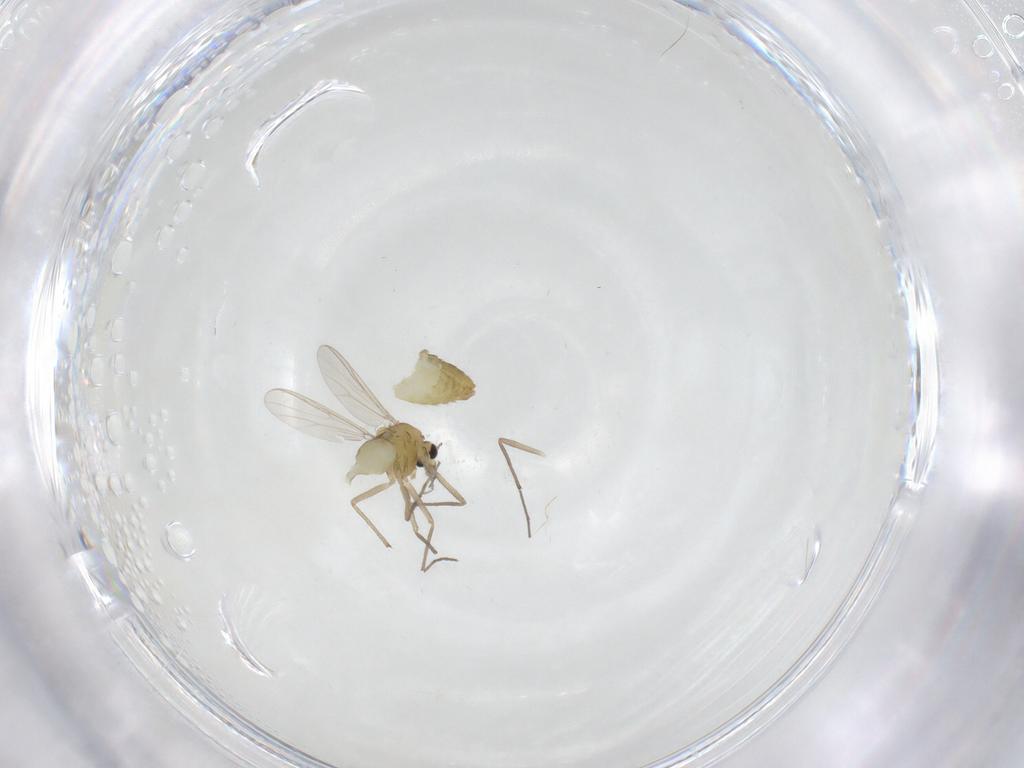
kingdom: Animalia
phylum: Arthropoda
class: Insecta
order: Diptera
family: Chironomidae
